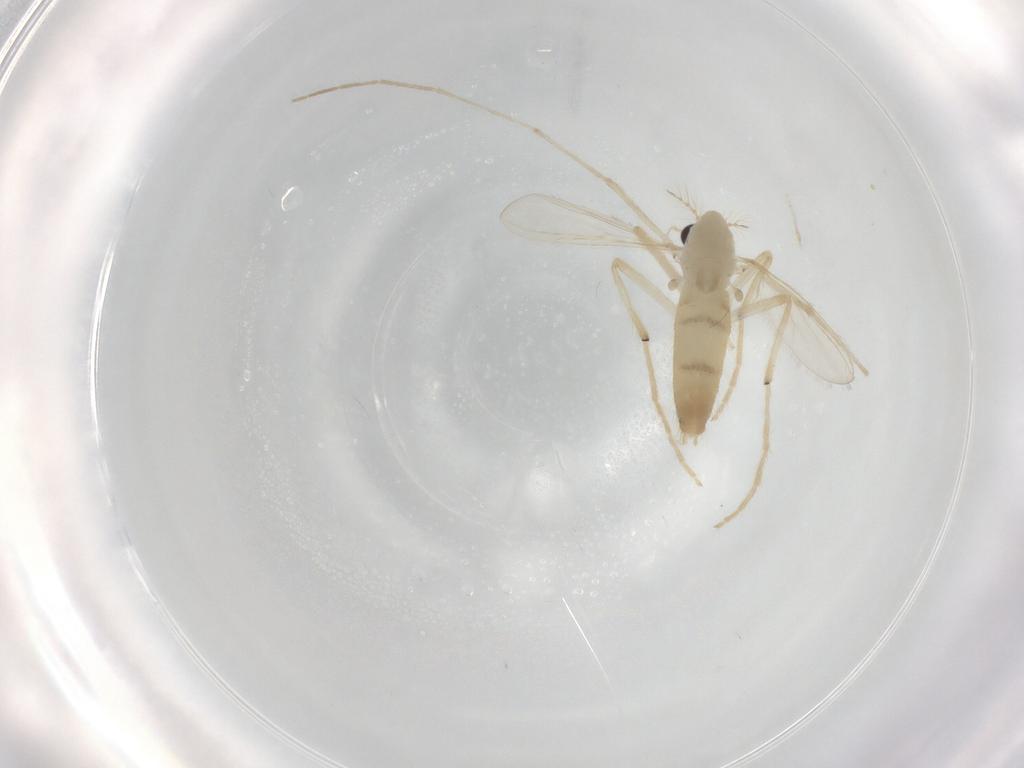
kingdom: Animalia
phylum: Arthropoda
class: Insecta
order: Diptera
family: Chironomidae
